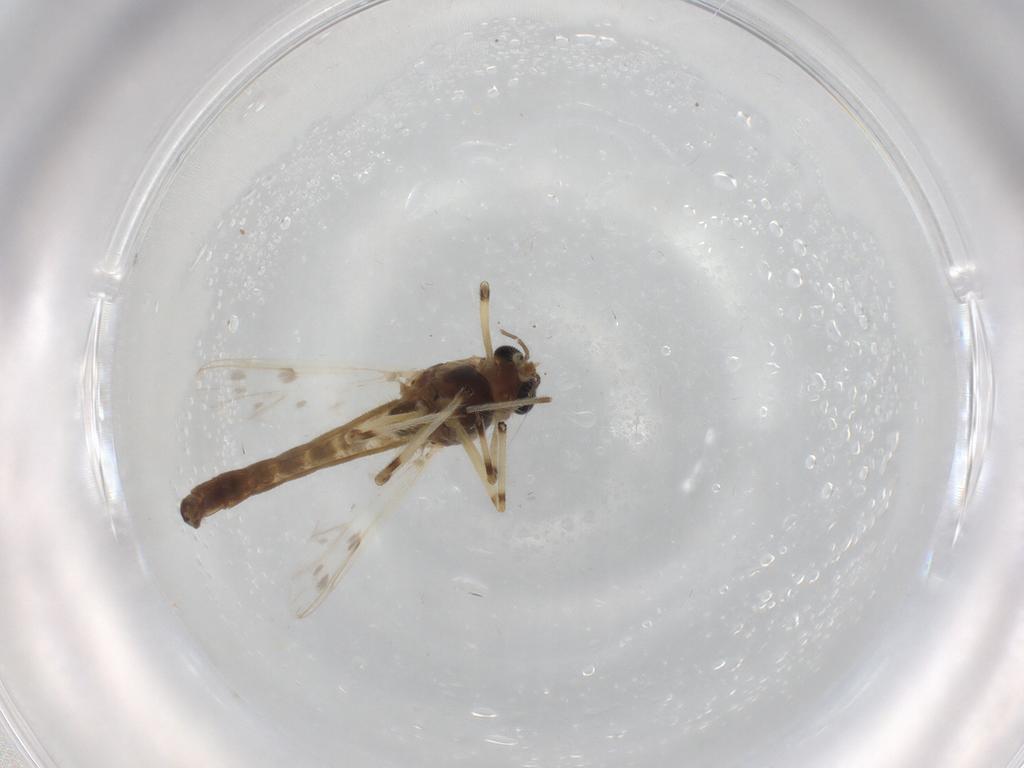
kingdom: Animalia
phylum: Arthropoda
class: Insecta
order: Diptera
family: Chironomidae
